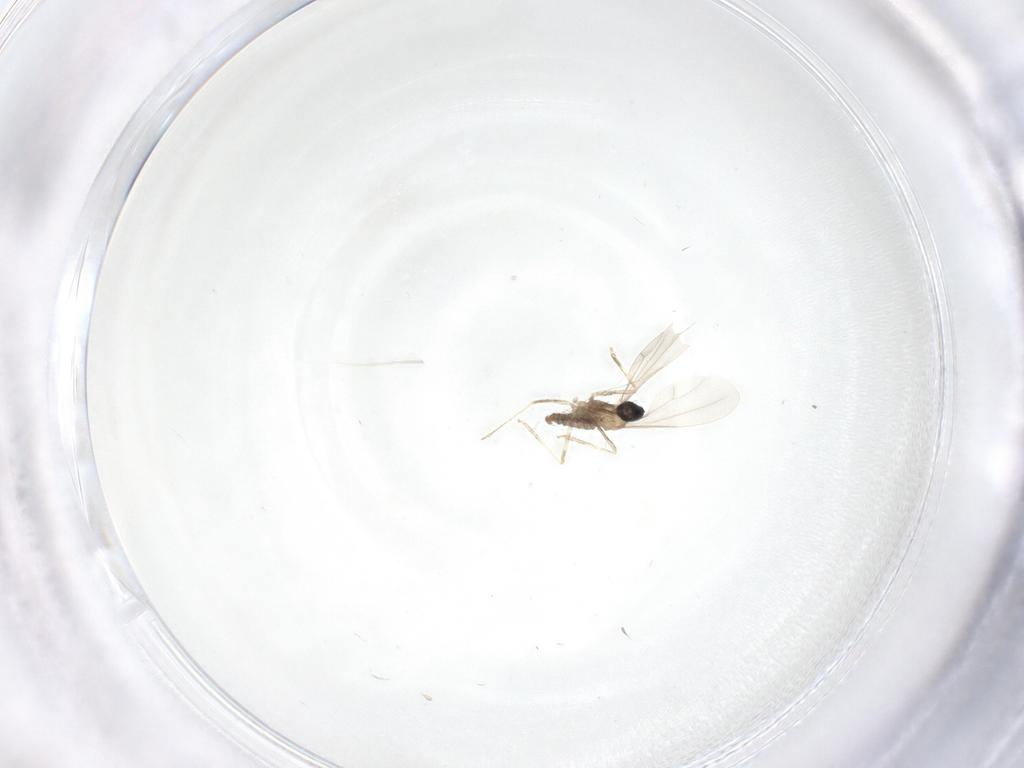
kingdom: Animalia
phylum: Arthropoda
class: Insecta
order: Diptera
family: Cecidomyiidae
